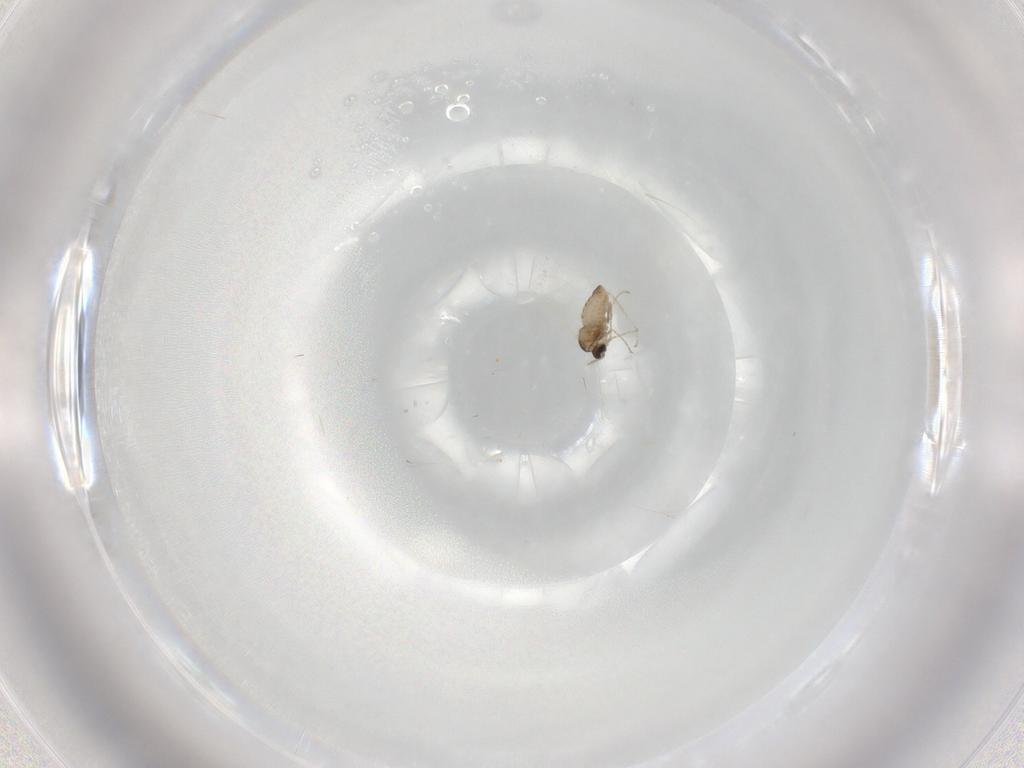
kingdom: Animalia
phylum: Arthropoda
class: Insecta
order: Diptera
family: Cecidomyiidae
